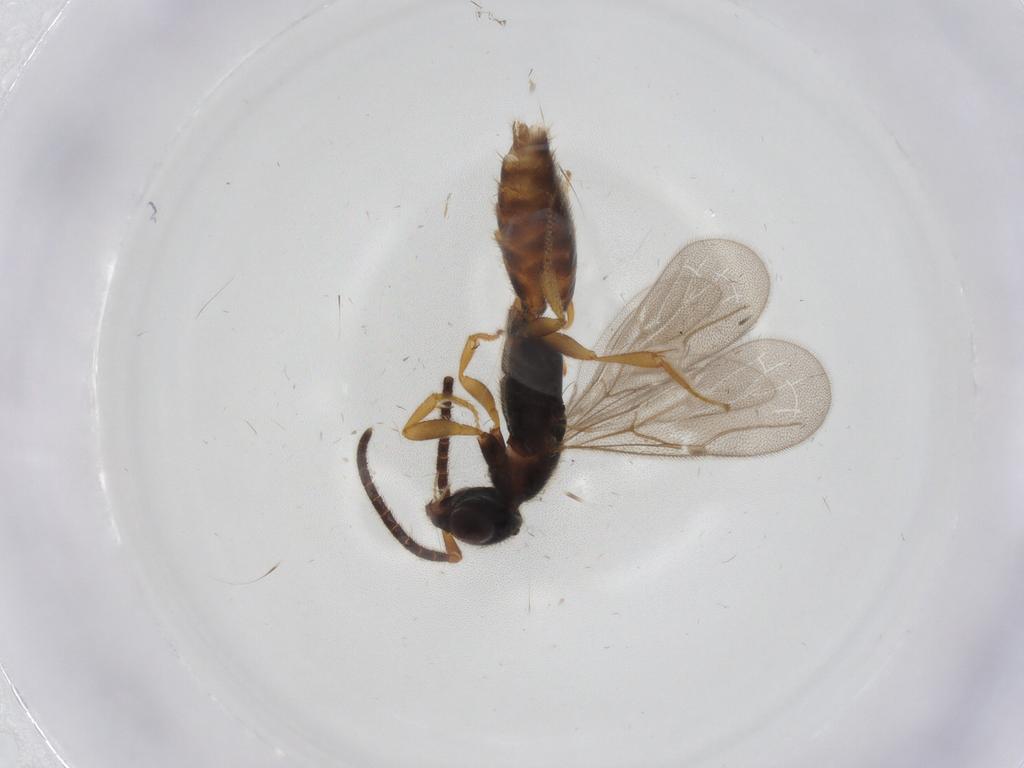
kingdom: Animalia
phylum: Arthropoda
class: Insecta
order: Hymenoptera
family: Bethylidae
